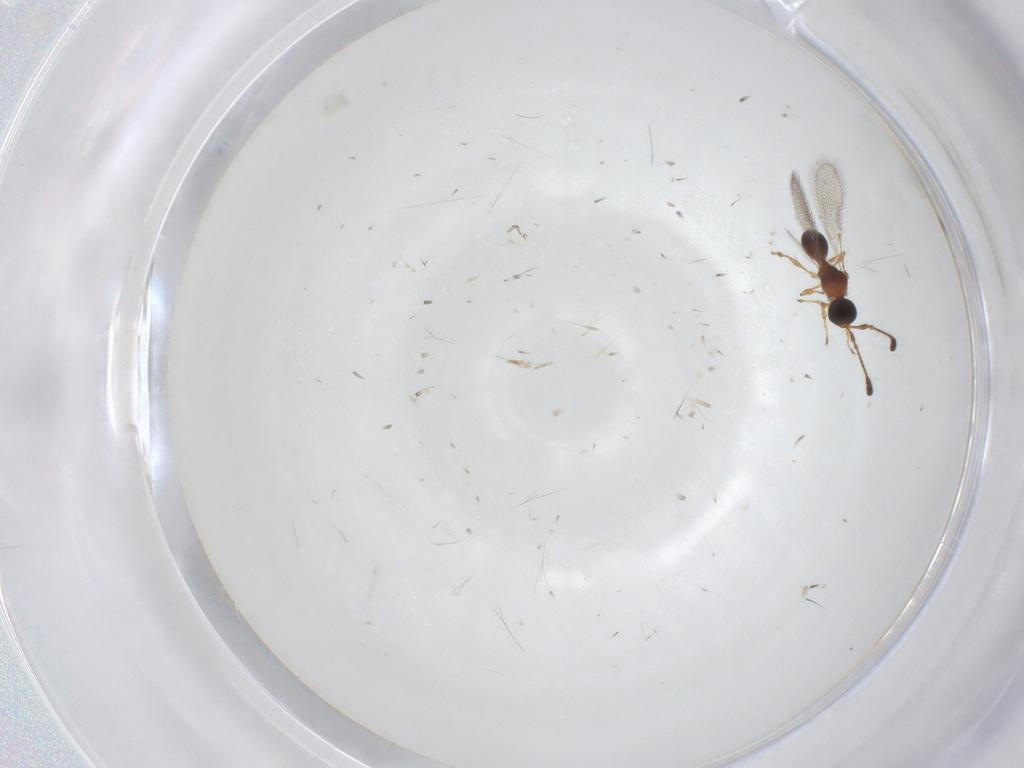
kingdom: Animalia
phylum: Arthropoda
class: Insecta
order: Hymenoptera
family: Diapriidae
